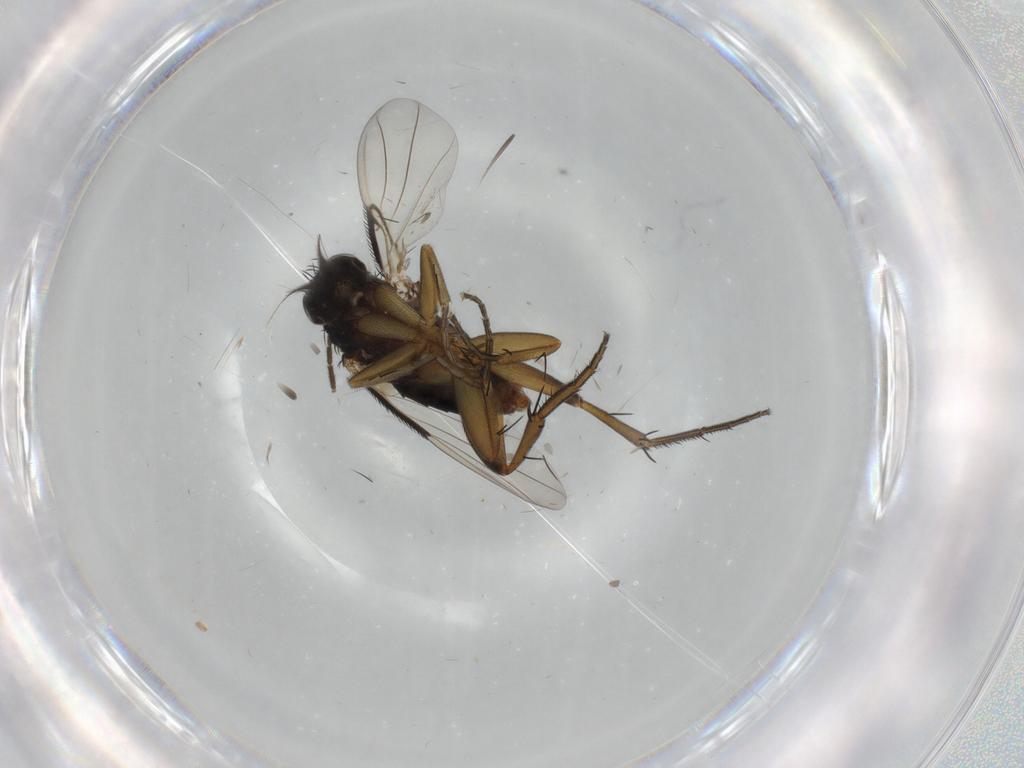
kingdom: Animalia
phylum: Arthropoda
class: Insecta
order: Diptera
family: Phoridae
